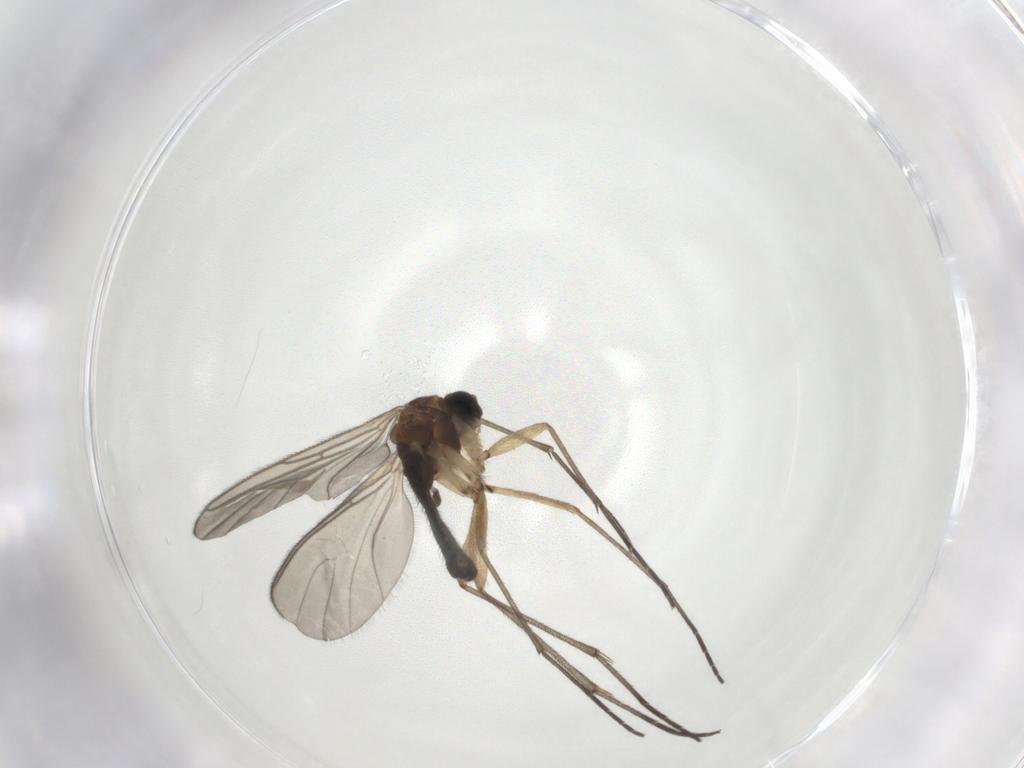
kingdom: Animalia
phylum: Arthropoda
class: Insecta
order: Diptera
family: Sciaridae
